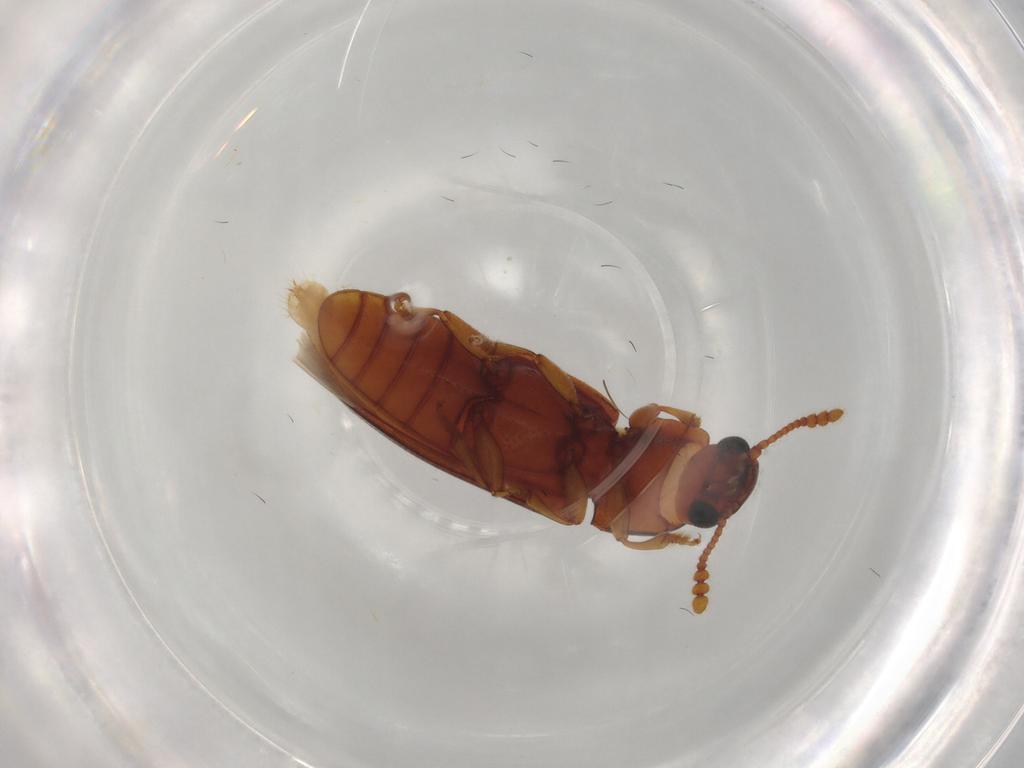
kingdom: Animalia
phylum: Arthropoda
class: Insecta
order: Coleoptera
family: Erotylidae
